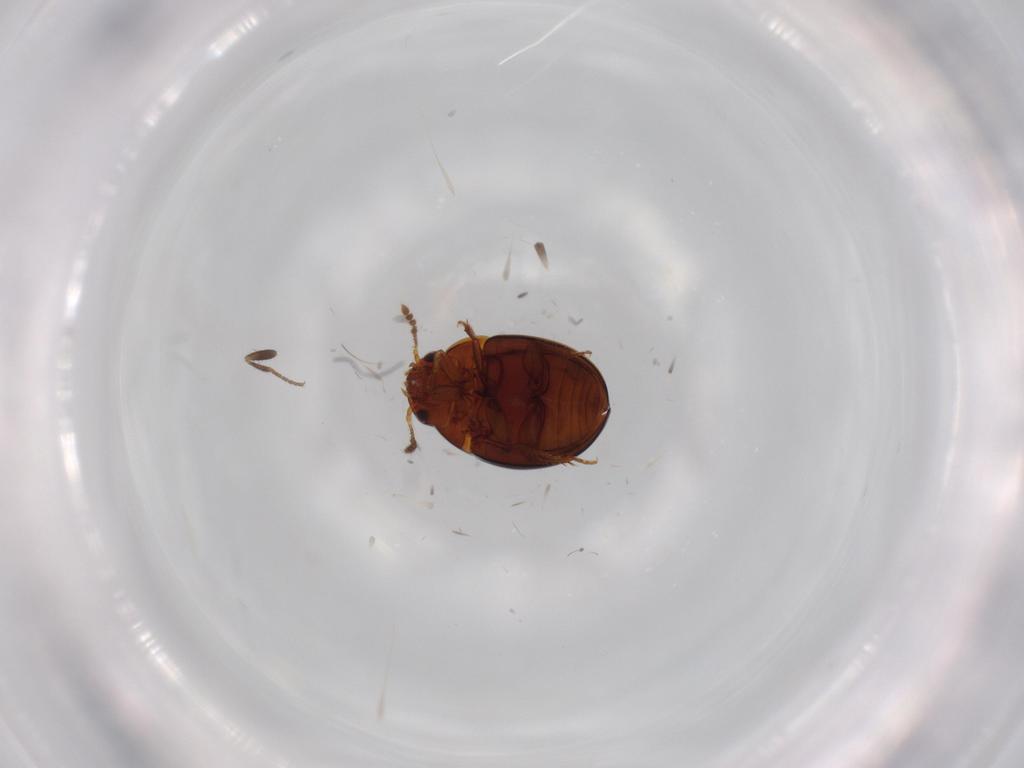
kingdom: Animalia
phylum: Arthropoda
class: Insecta
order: Coleoptera
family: Leiodidae
